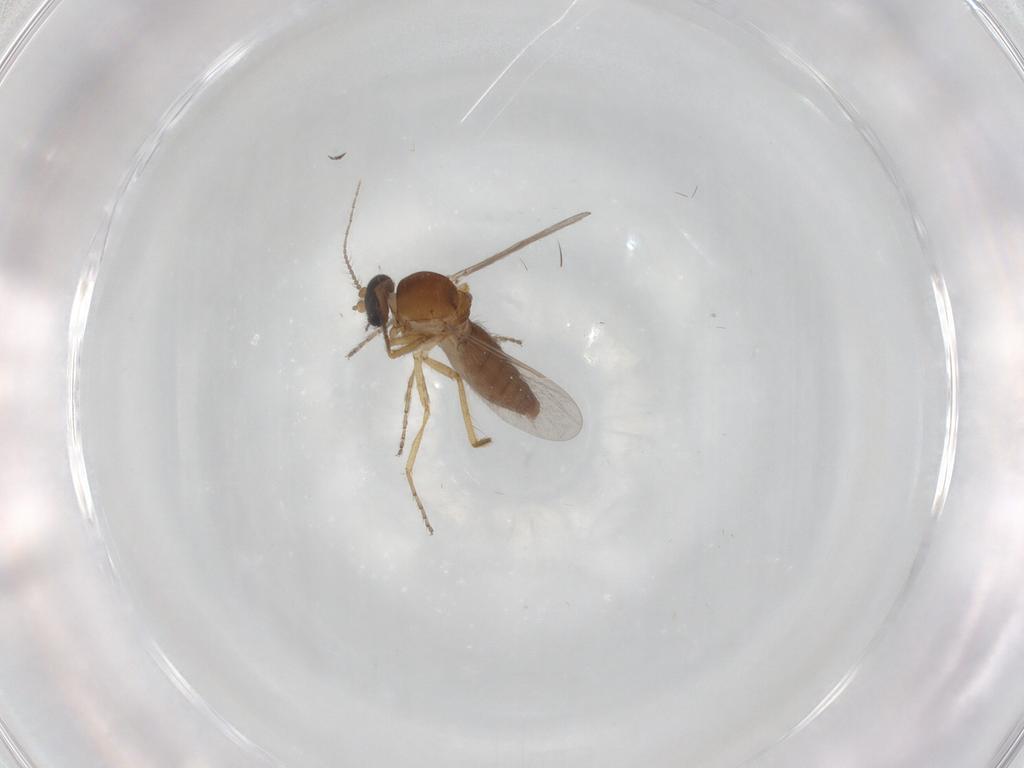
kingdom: Animalia
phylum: Arthropoda
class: Insecta
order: Diptera
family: Ceratopogonidae
